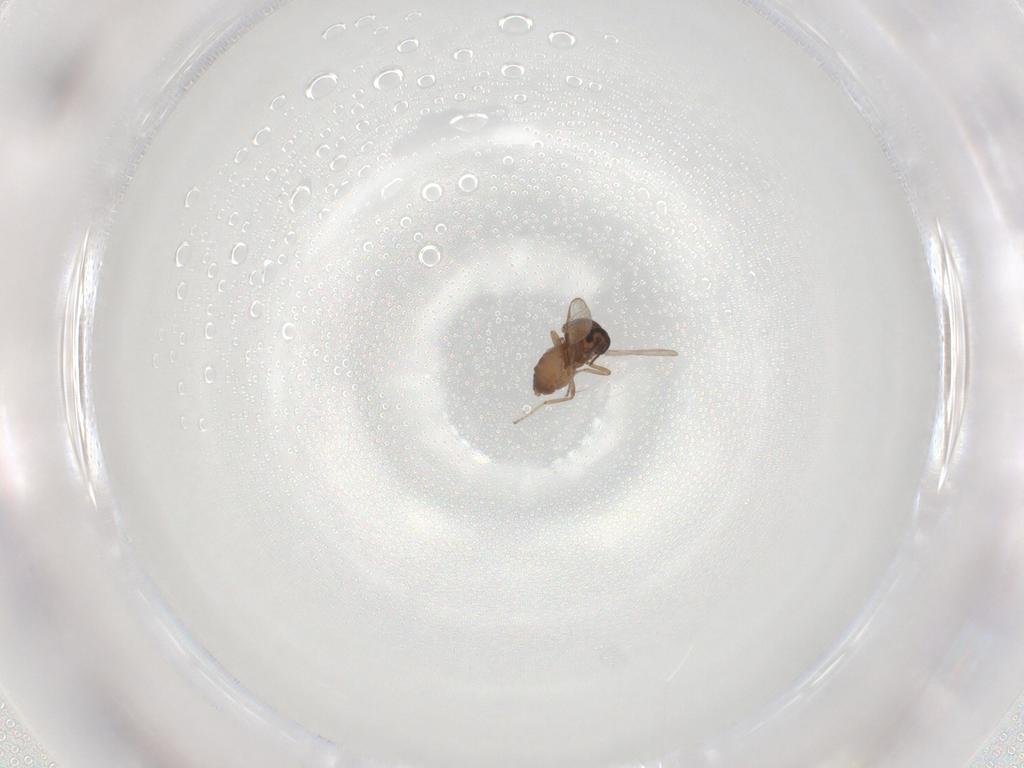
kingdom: Animalia
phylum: Arthropoda
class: Insecta
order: Diptera
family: Ceratopogonidae
